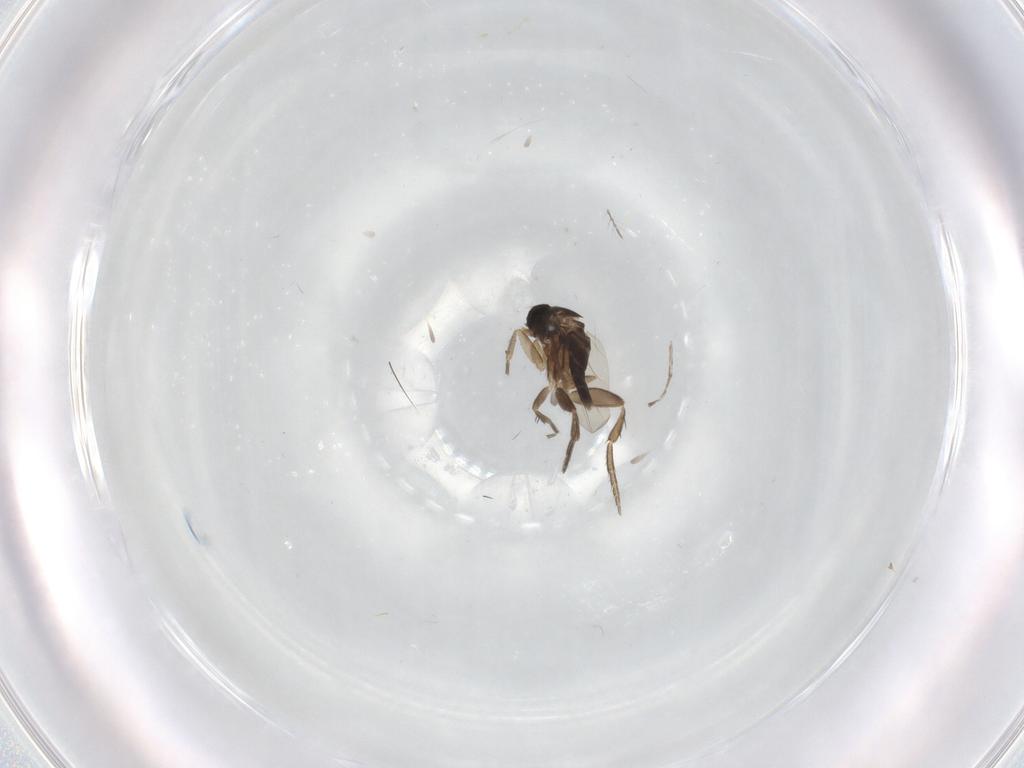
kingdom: Animalia
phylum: Arthropoda
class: Insecta
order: Diptera
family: Phoridae
